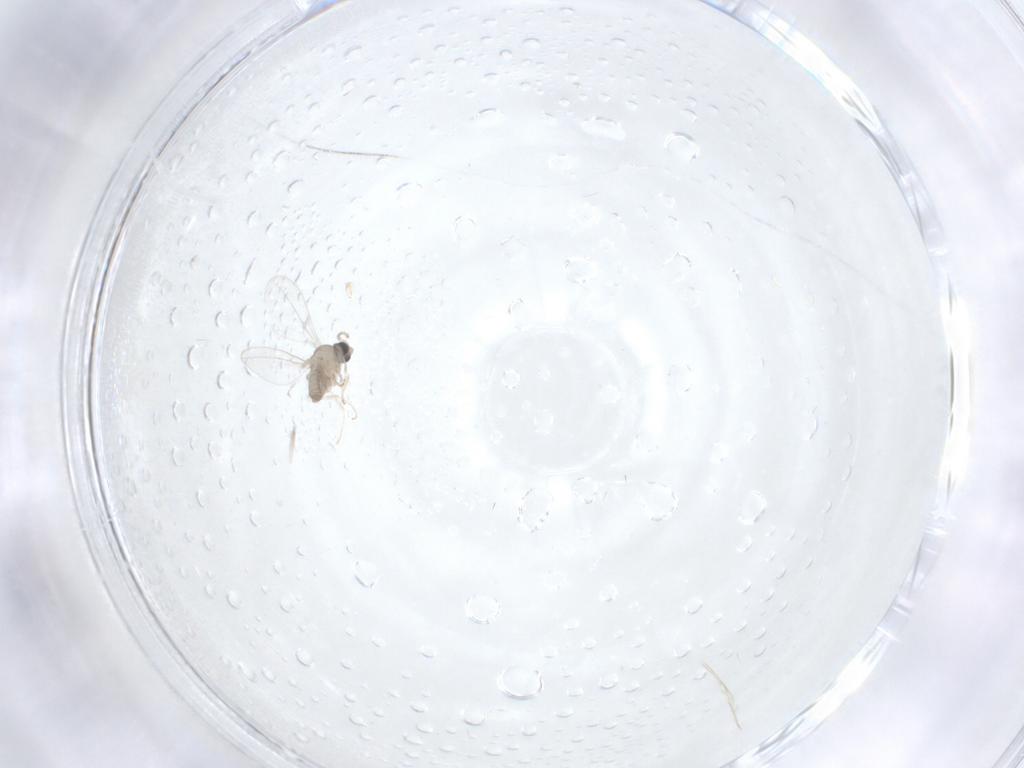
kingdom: Animalia
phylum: Arthropoda
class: Insecta
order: Diptera
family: Cecidomyiidae
